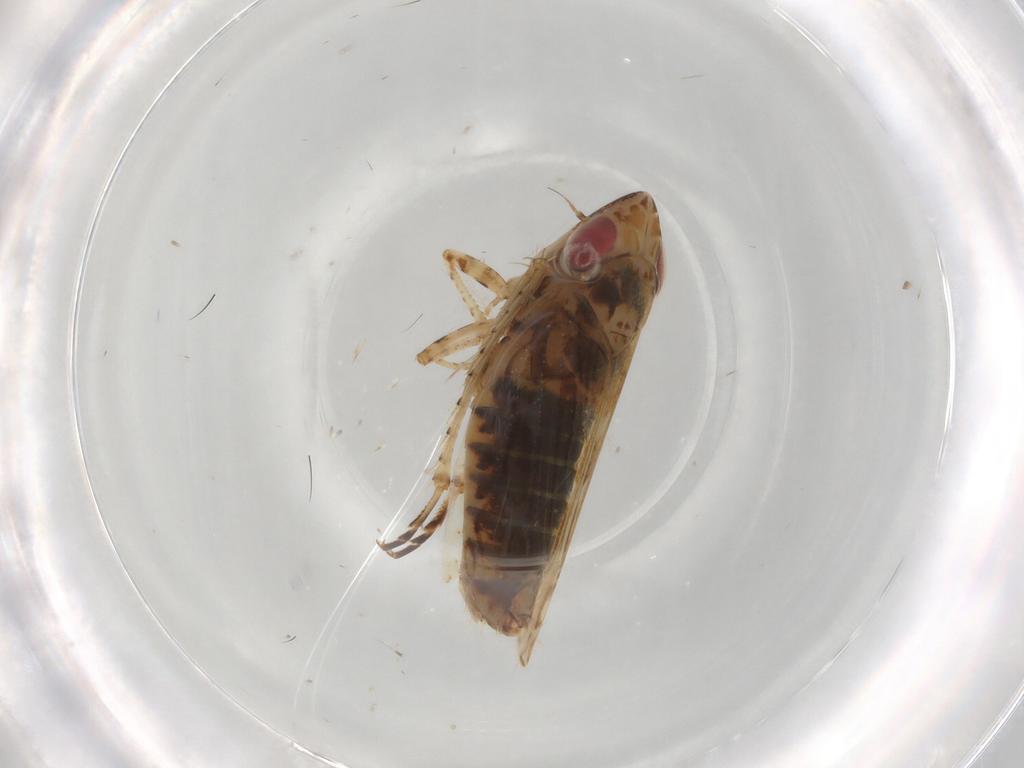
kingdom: Animalia
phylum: Arthropoda
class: Insecta
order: Hemiptera
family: Cicadellidae
